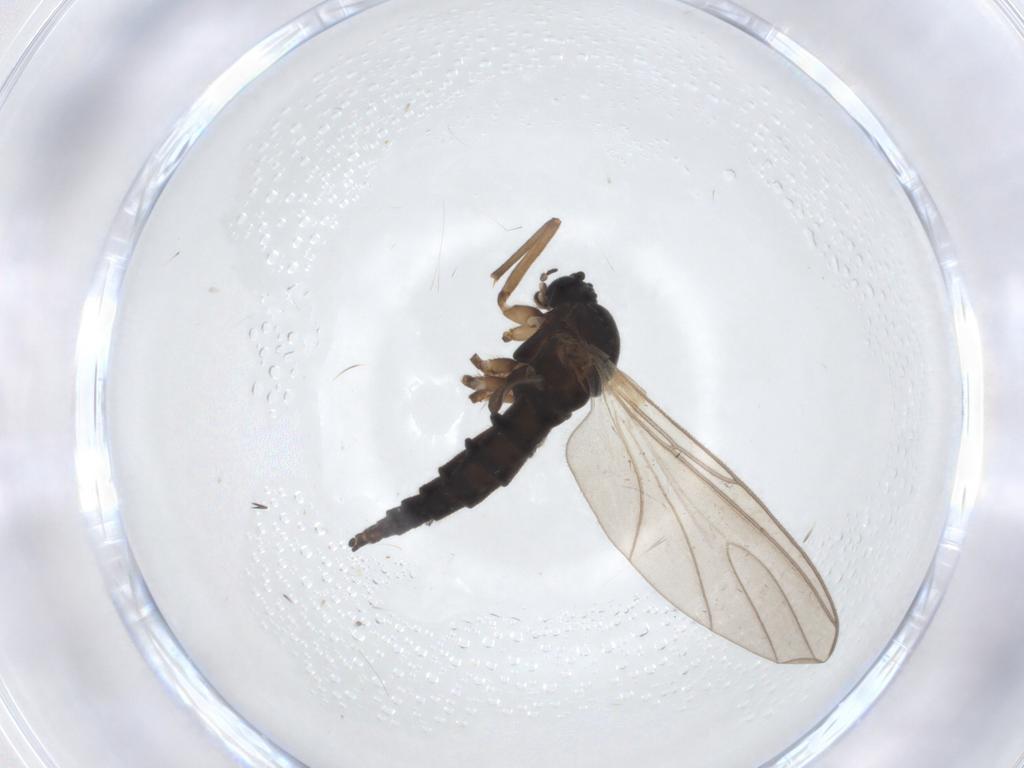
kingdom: Animalia
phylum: Arthropoda
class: Insecta
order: Diptera
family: Sciaridae
